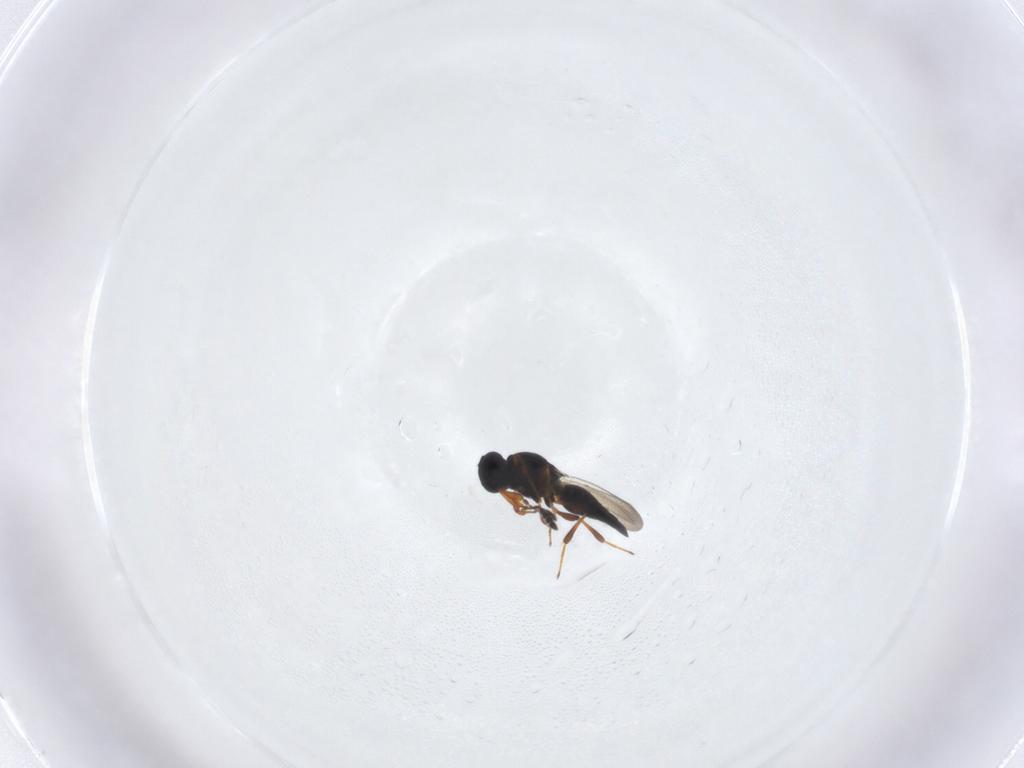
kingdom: Animalia
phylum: Arthropoda
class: Insecta
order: Hymenoptera
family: Platygastridae
